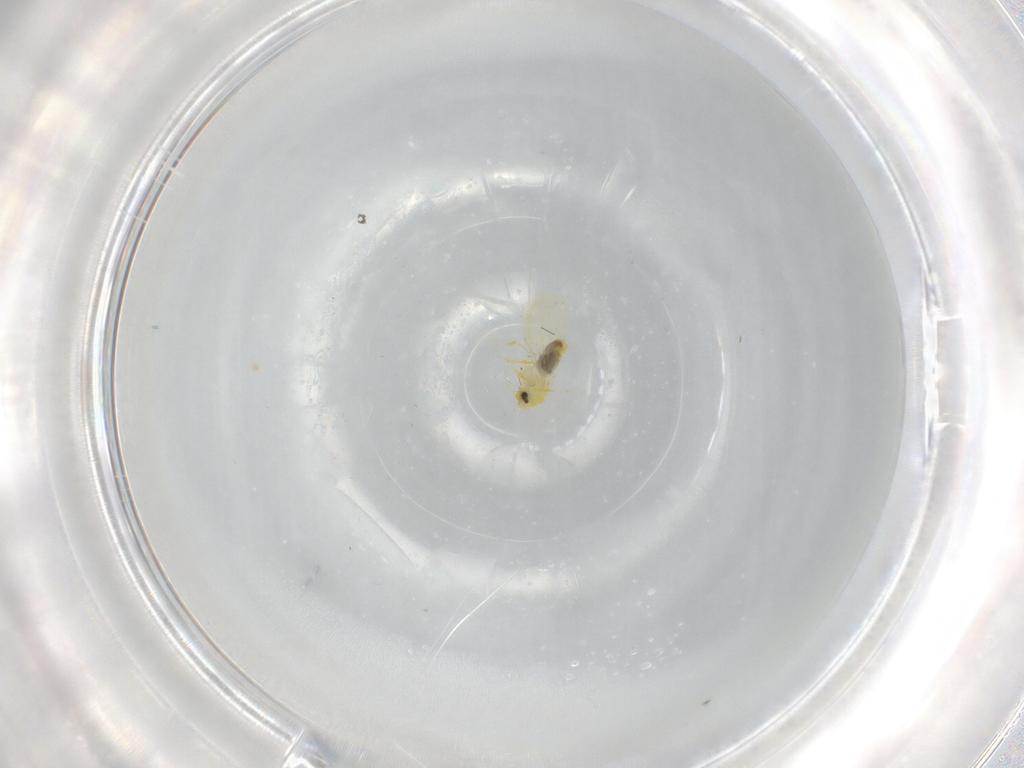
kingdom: Animalia
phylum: Arthropoda
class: Insecta
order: Hemiptera
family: Aleyrodidae
